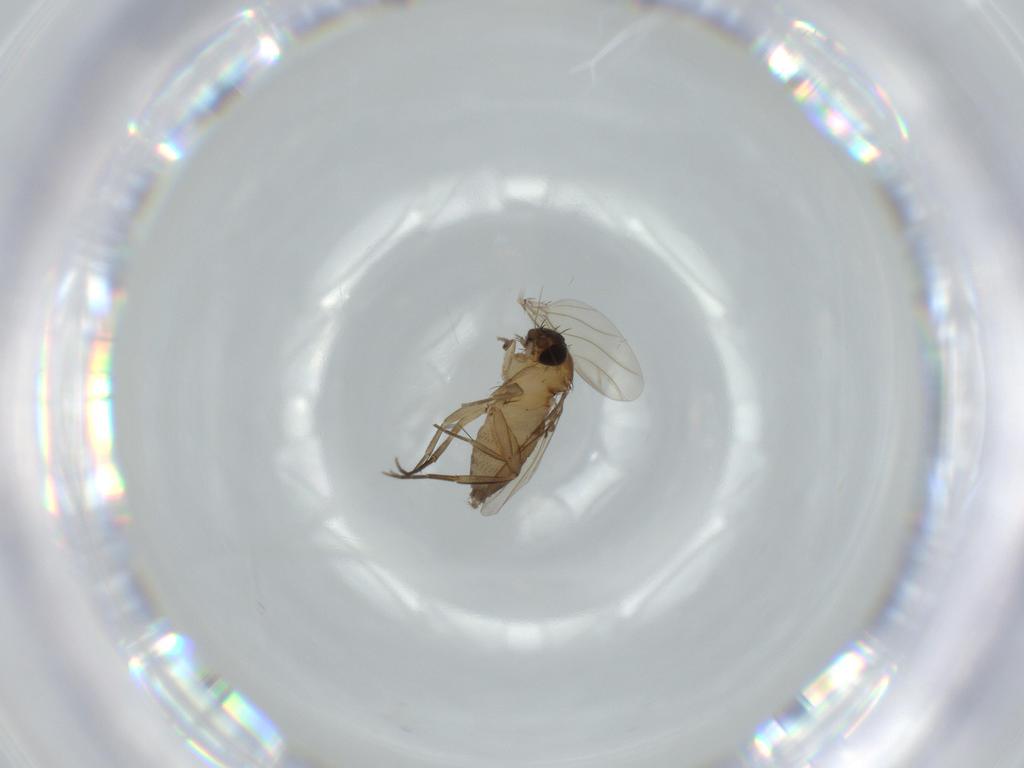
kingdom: Animalia
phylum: Arthropoda
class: Insecta
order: Diptera
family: Phoridae
